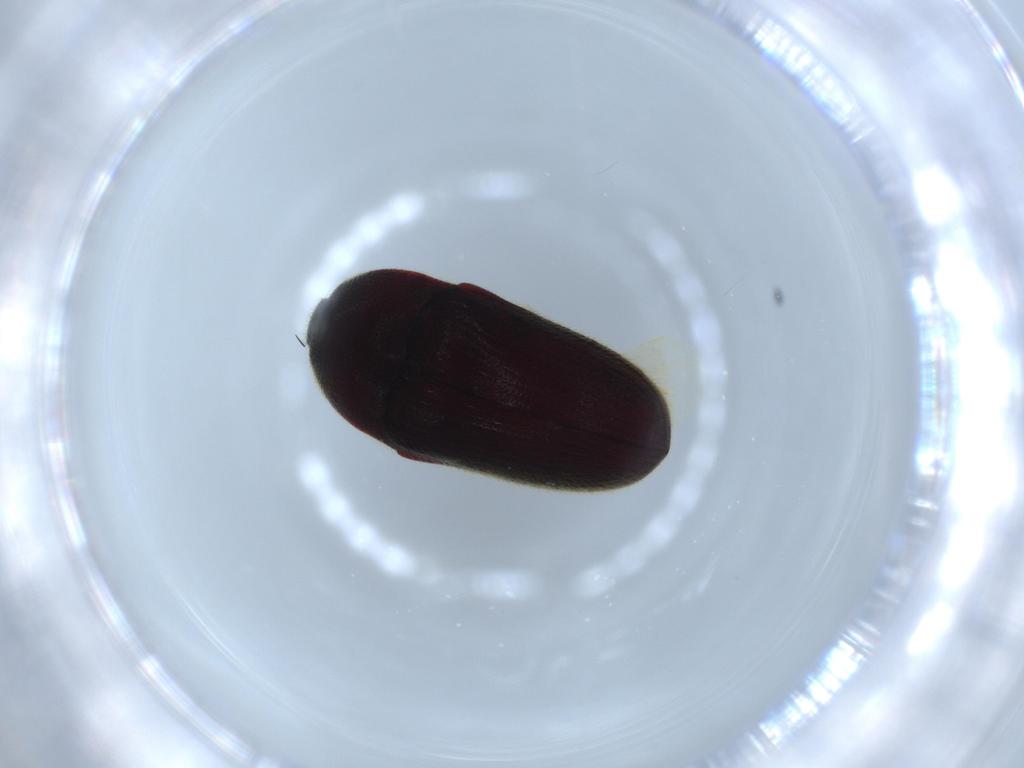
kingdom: Animalia
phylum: Arthropoda
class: Insecta
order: Coleoptera
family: Throscidae
